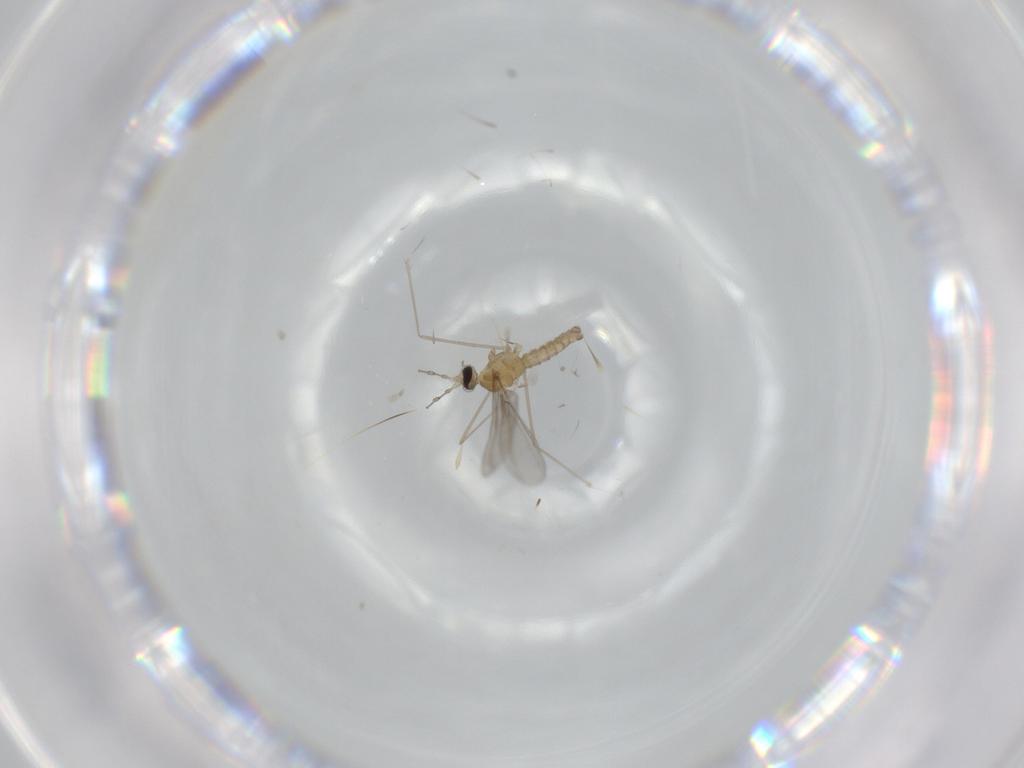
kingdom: Animalia
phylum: Arthropoda
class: Insecta
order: Diptera
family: Cecidomyiidae
